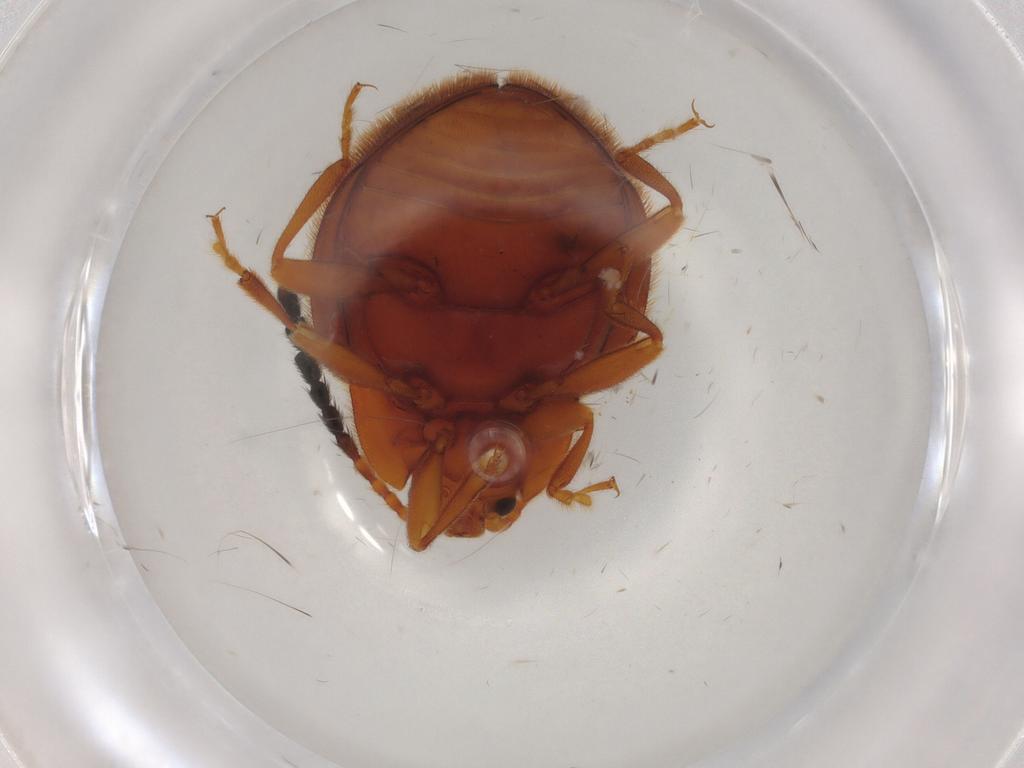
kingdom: Animalia
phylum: Arthropoda
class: Insecta
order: Coleoptera
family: Endomychidae
